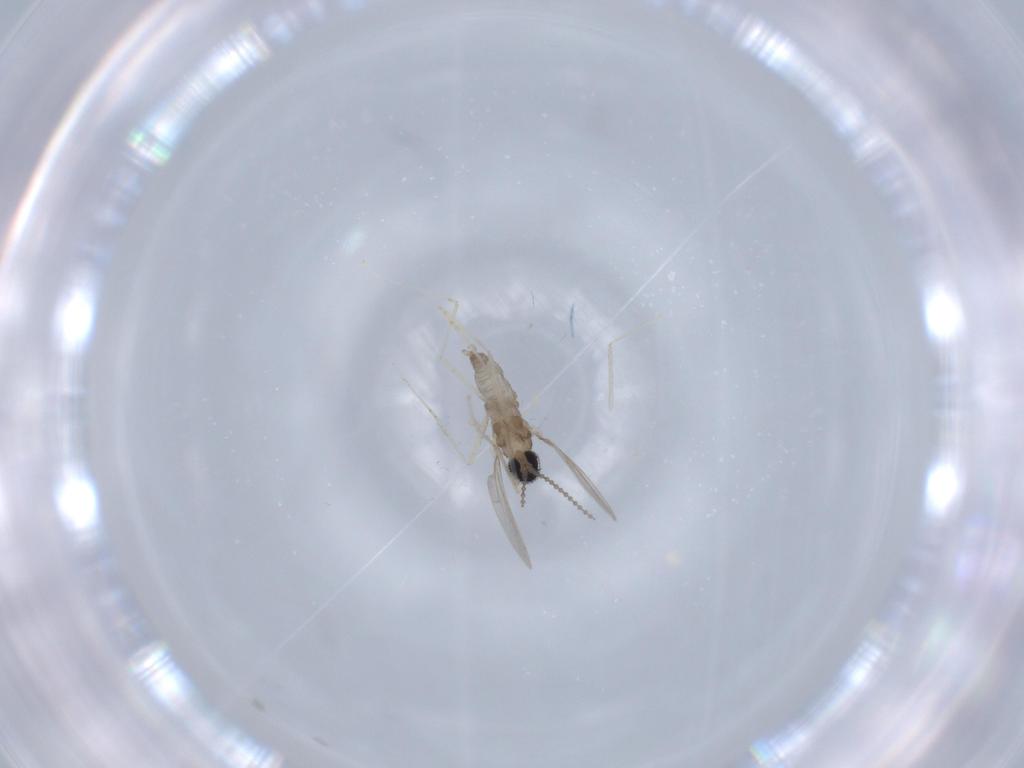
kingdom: Animalia
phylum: Arthropoda
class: Insecta
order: Diptera
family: Cecidomyiidae
